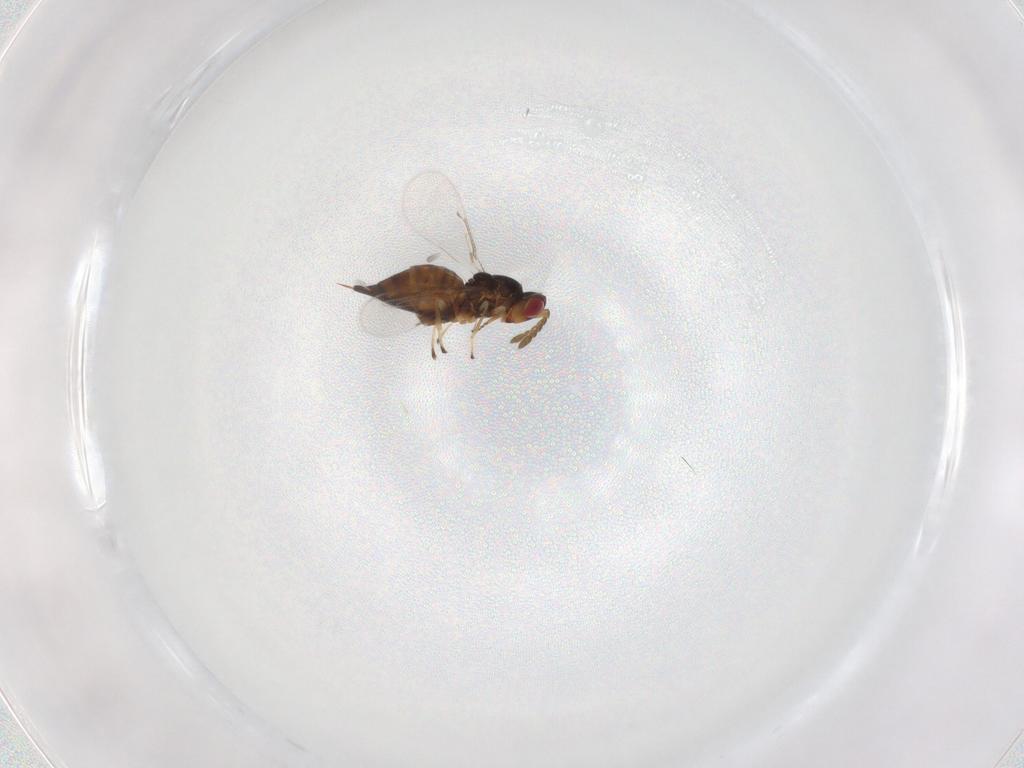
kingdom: Animalia
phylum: Arthropoda
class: Insecta
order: Hymenoptera
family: Eulophidae
